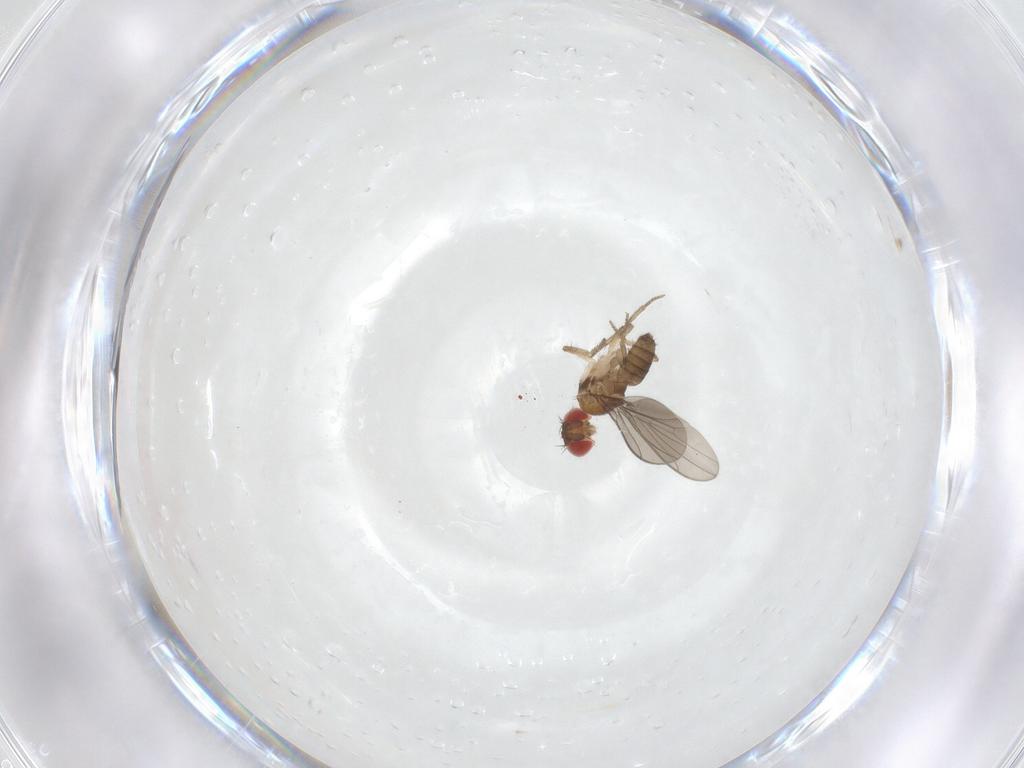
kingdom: Animalia
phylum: Arthropoda
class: Insecta
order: Diptera
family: Drosophilidae
